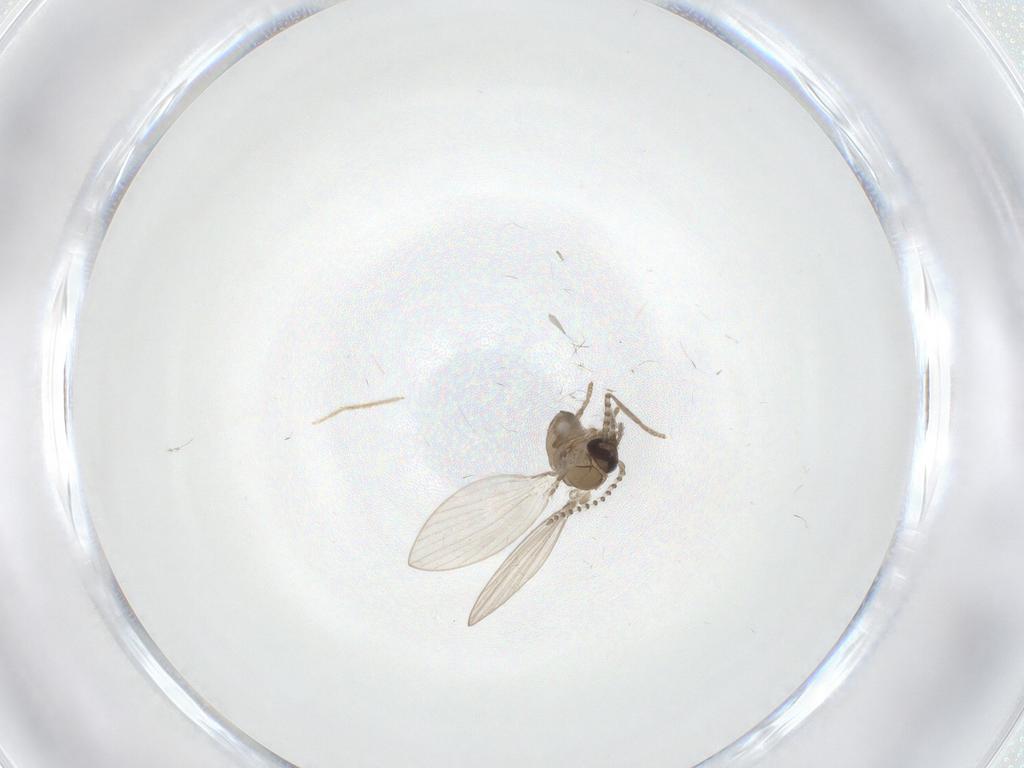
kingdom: Animalia
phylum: Arthropoda
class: Insecta
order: Diptera
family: Psychodidae
